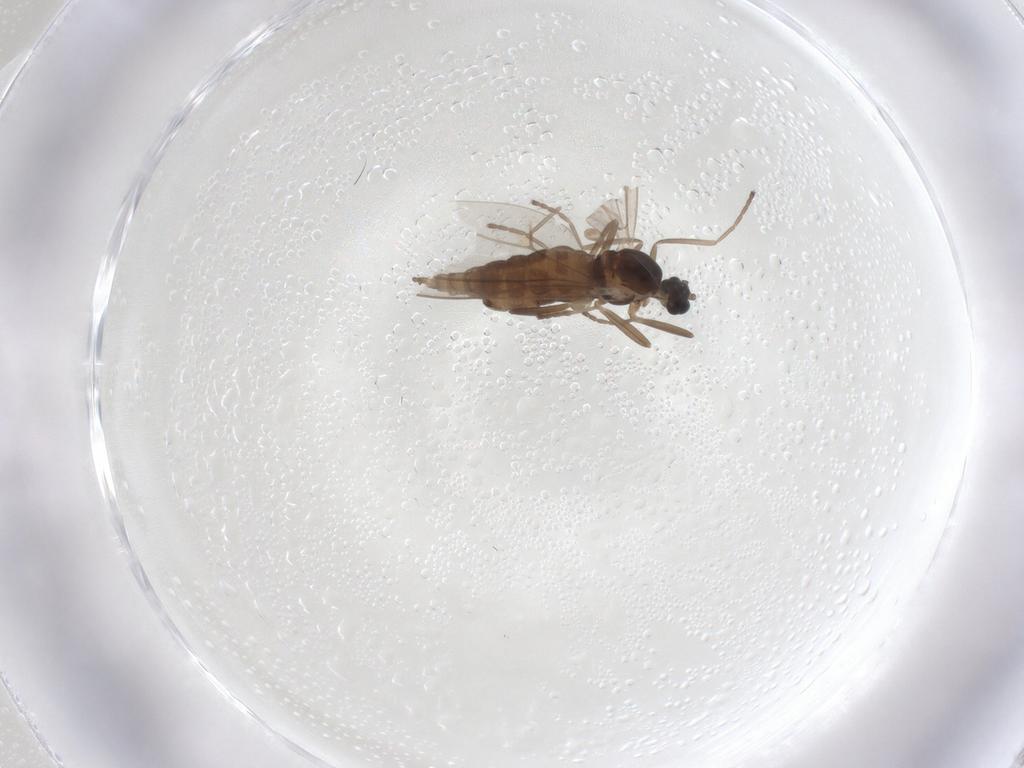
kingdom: Animalia
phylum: Arthropoda
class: Insecta
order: Diptera
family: Cecidomyiidae
